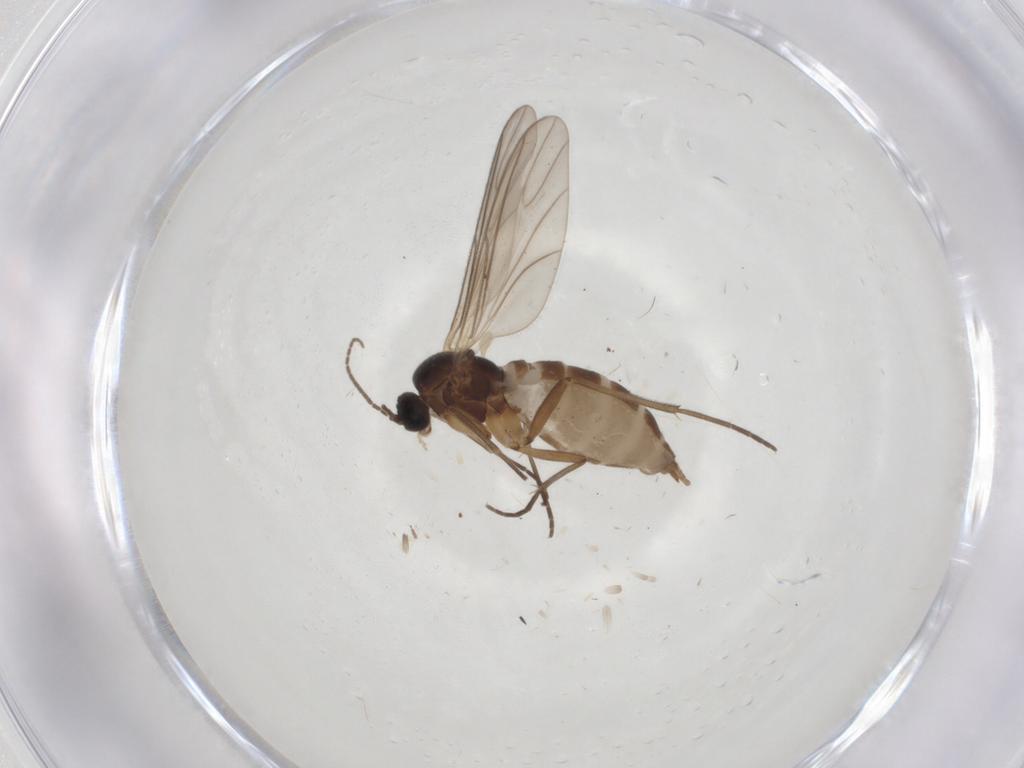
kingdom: Animalia
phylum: Arthropoda
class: Insecta
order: Diptera
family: Sciaridae
